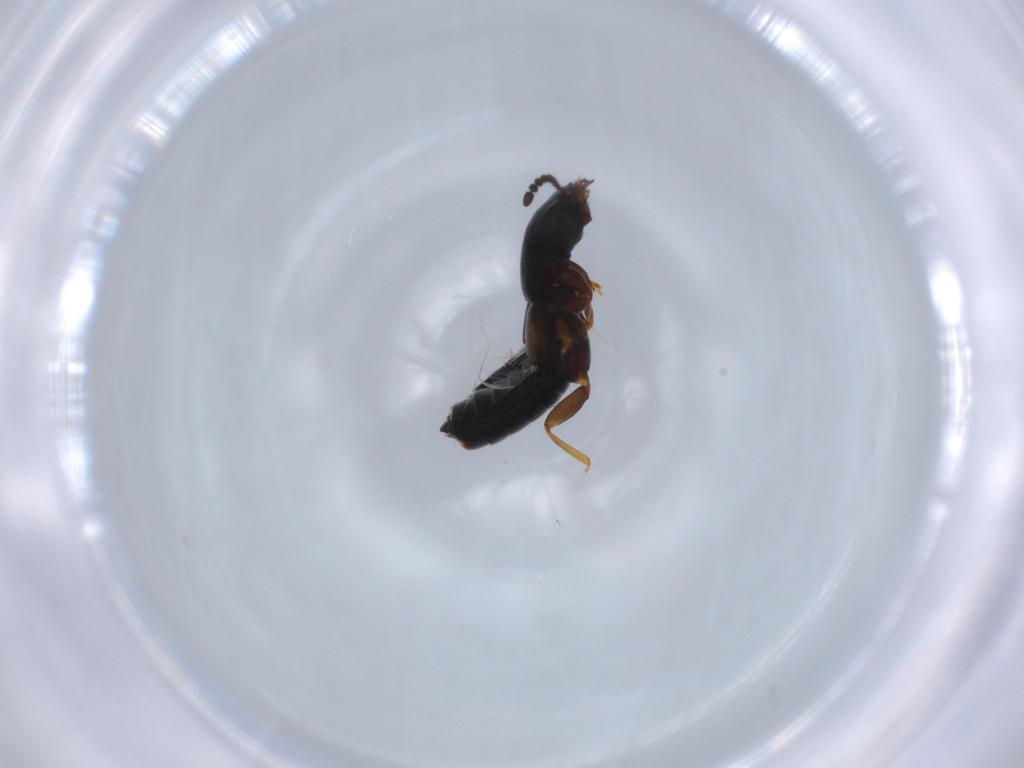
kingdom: Animalia
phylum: Arthropoda
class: Insecta
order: Coleoptera
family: Staphylinidae
